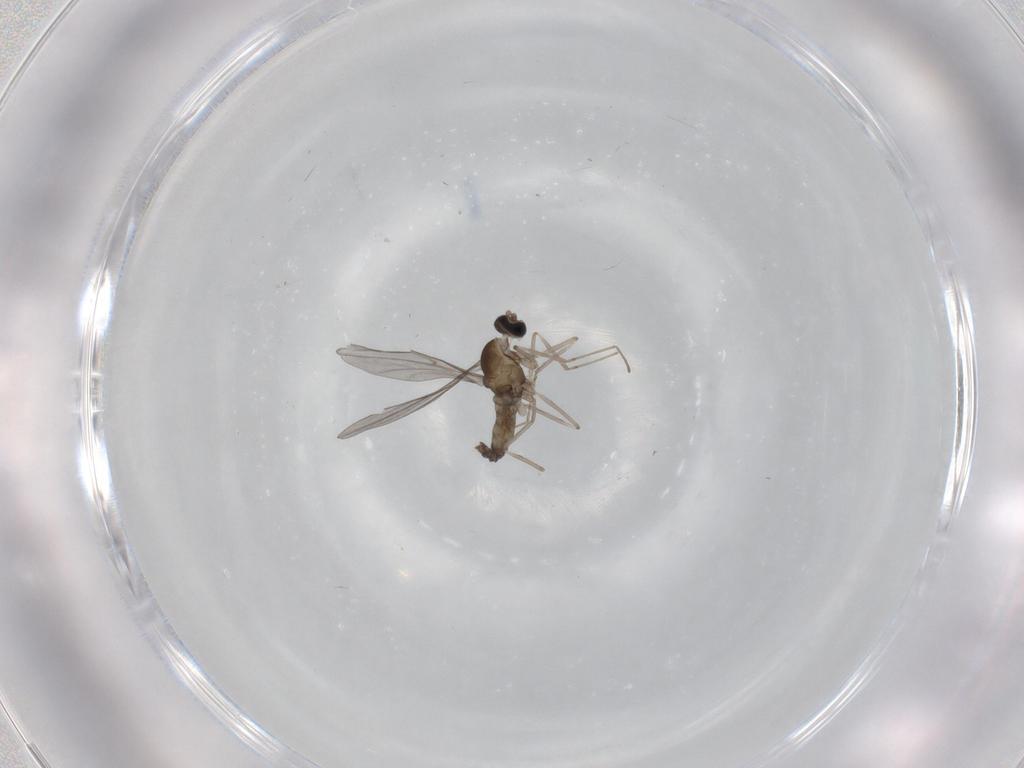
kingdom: Animalia
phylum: Arthropoda
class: Insecta
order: Diptera
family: Cecidomyiidae
